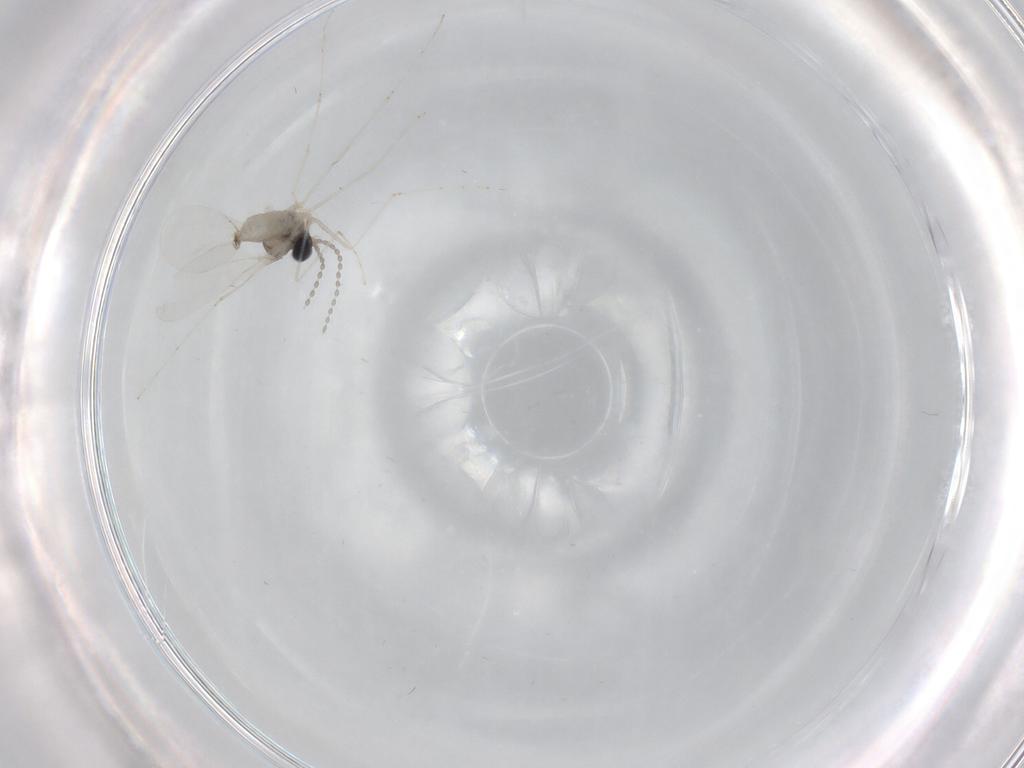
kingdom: Animalia
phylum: Arthropoda
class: Insecta
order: Diptera
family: Cecidomyiidae
